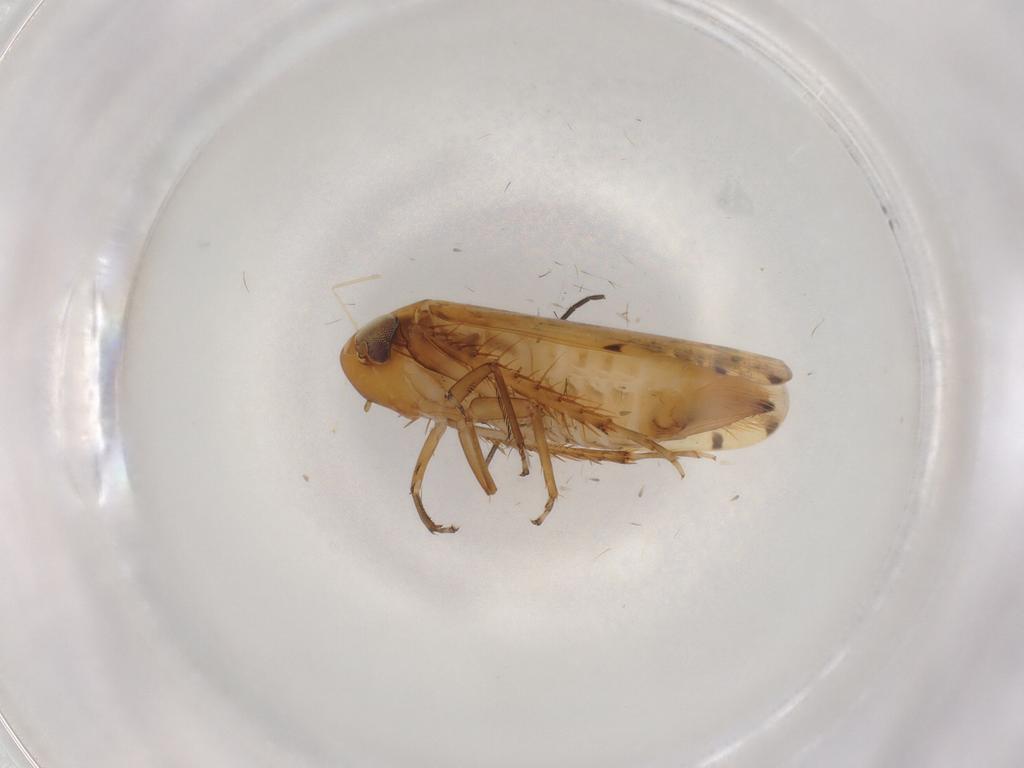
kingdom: Animalia
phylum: Arthropoda
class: Insecta
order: Hemiptera
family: Cicadellidae
